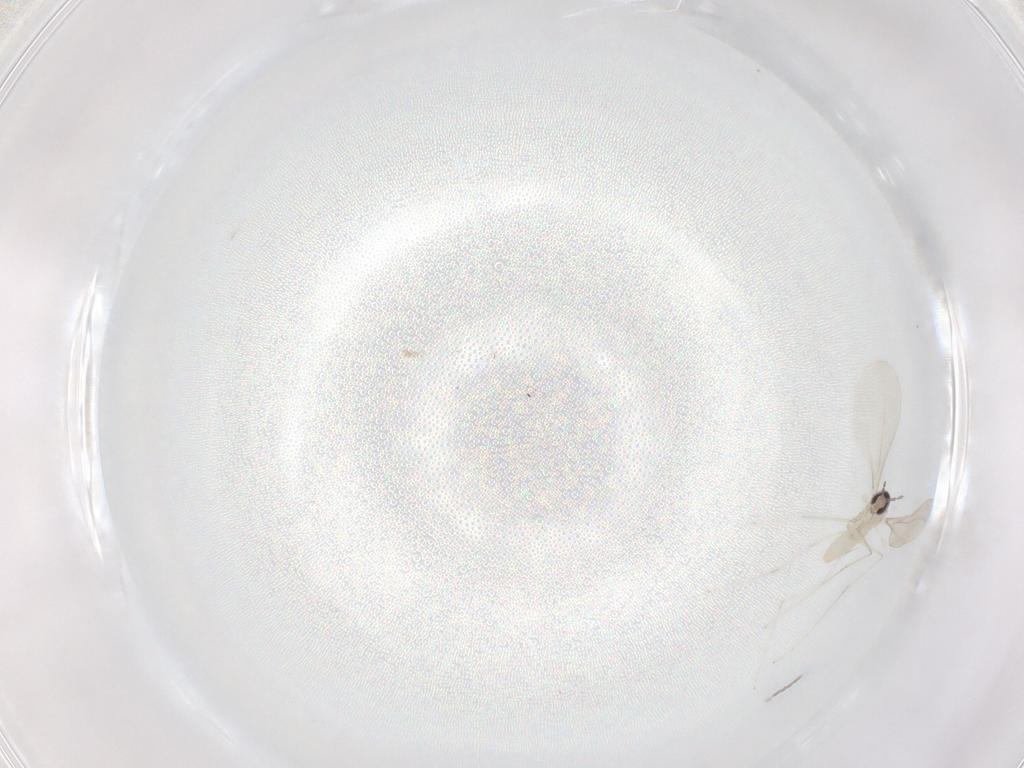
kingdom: Animalia
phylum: Arthropoda
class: Insecta
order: Diptera
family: Cecidomyiidae
